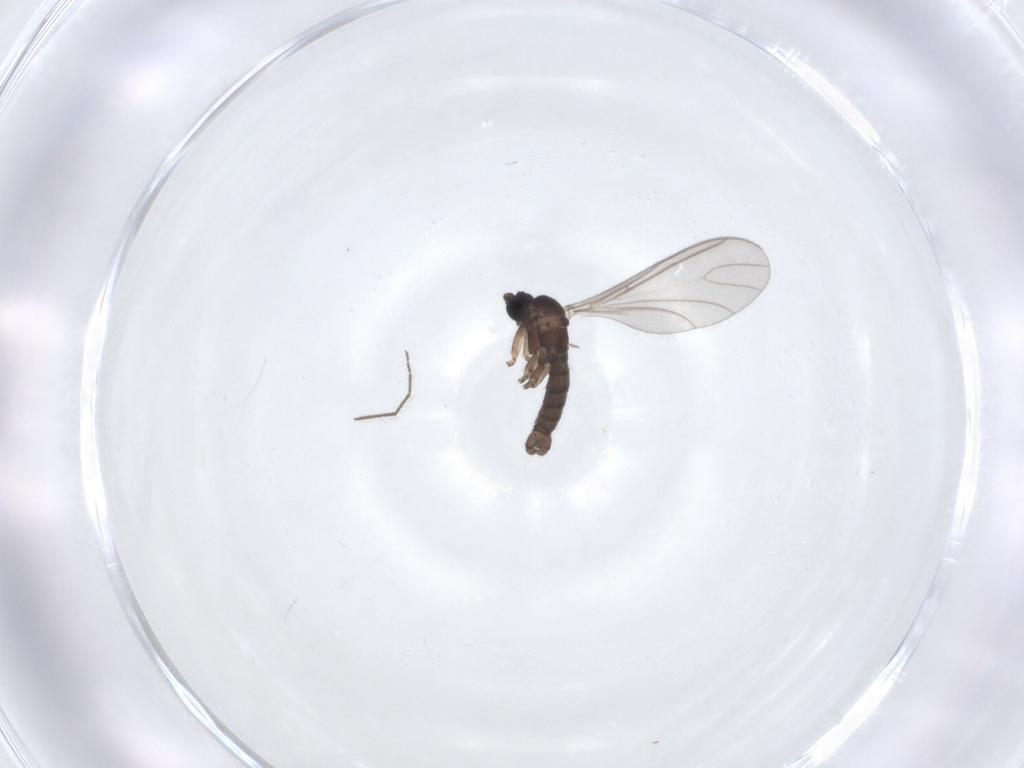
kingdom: Animalia
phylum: Arthropoda
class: Insecta
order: Diptera
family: Sciaridae
